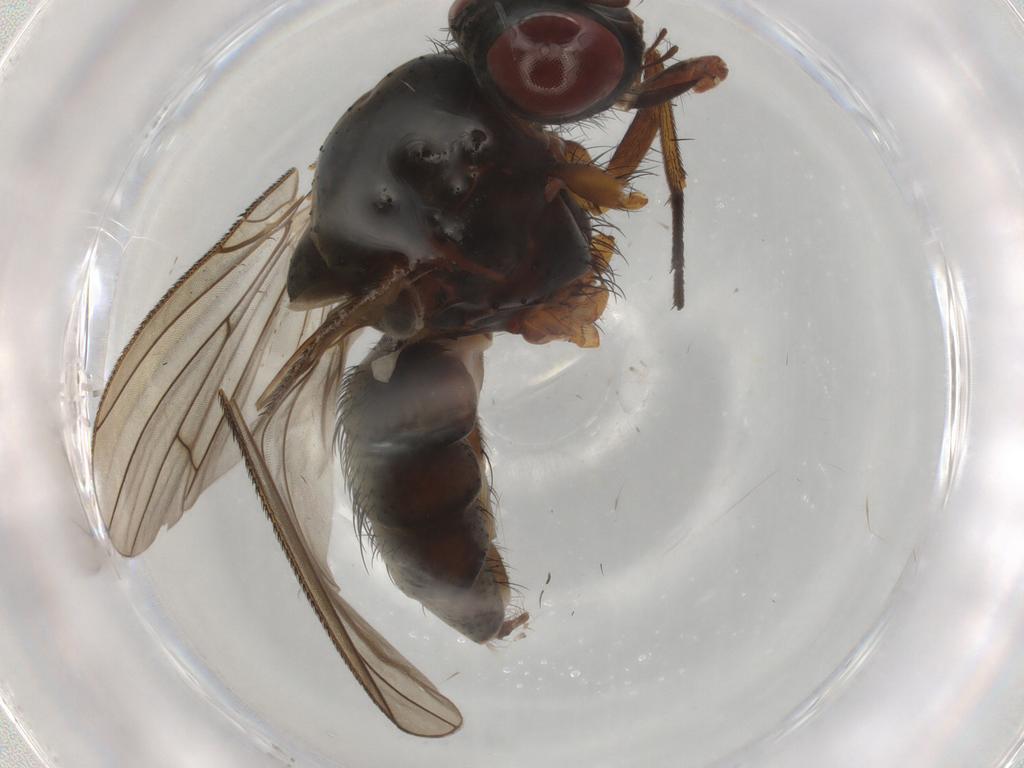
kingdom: Animalia
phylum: Arthropoda
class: Insecta
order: Diptera
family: Anthomyiidae
